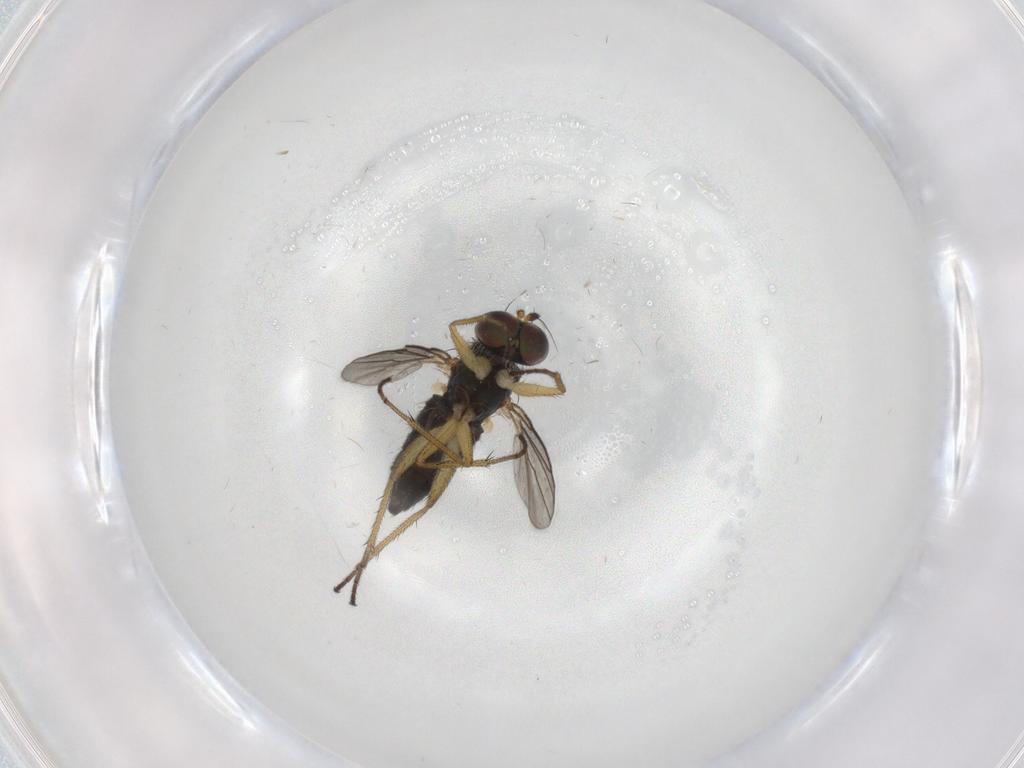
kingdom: Animalia
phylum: Arthropoda
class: Insecta
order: Diptera
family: Dolichopodidae
